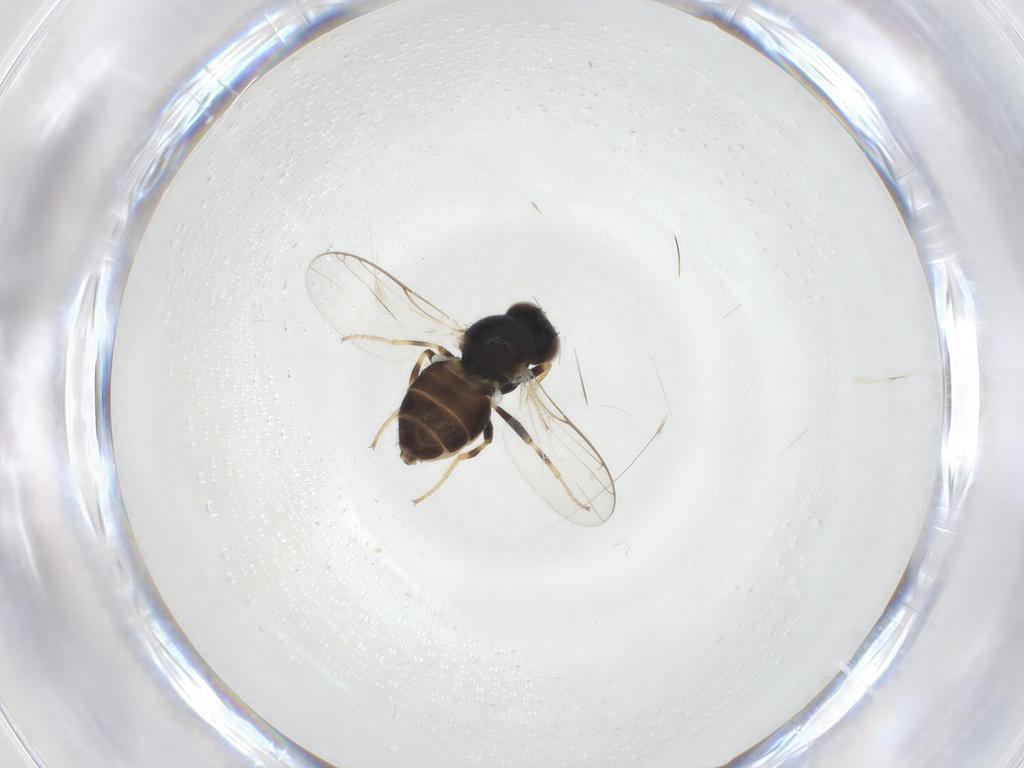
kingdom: Animalia
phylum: Arthropoda
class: Insecta
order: Diptera
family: Chloropidae
